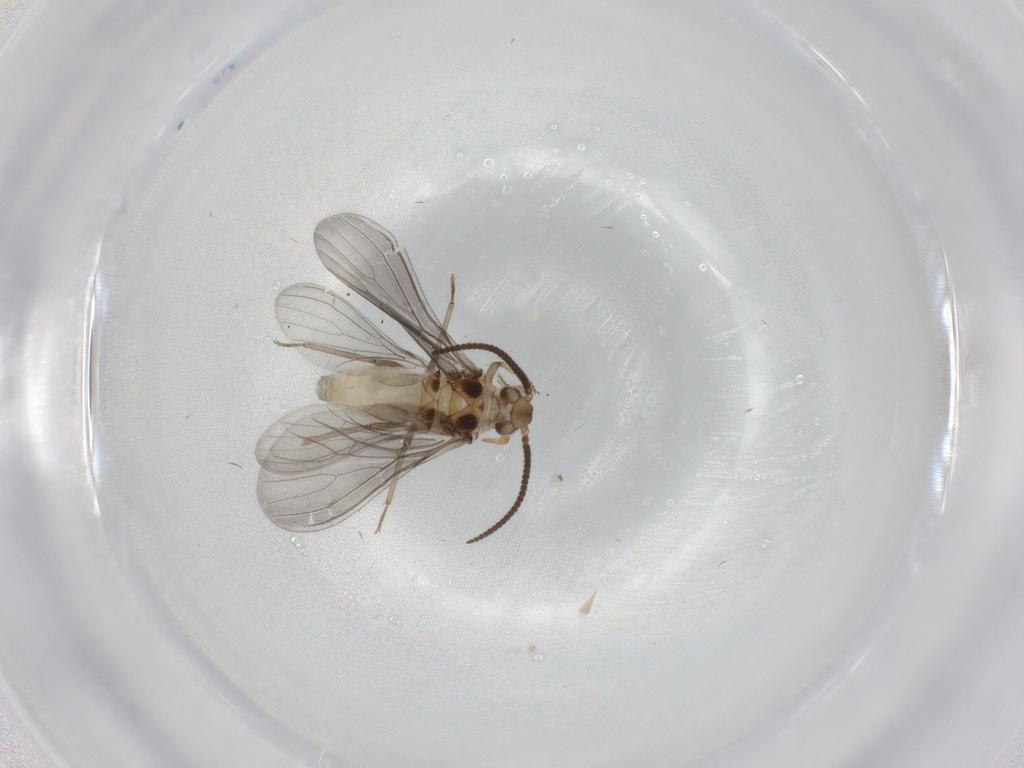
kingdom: Animalia
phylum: Arthropoda
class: Insecta
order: Neuroptera
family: Coniopterygidae
